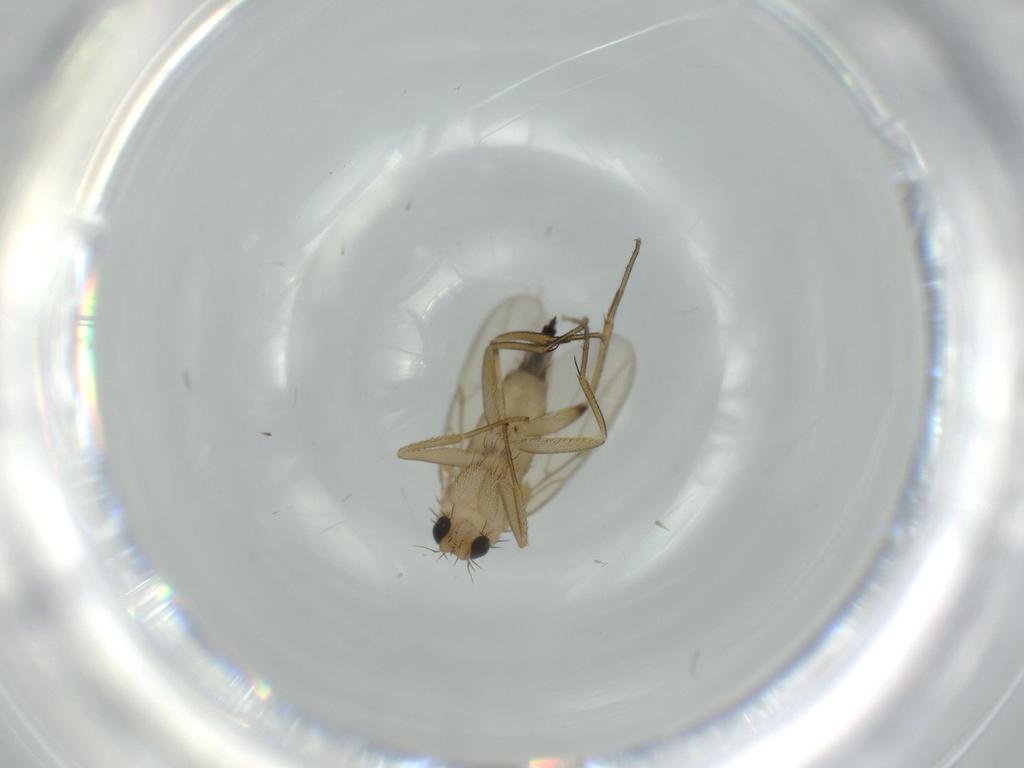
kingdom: Animalia
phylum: Arthropoda
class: Insecta
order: Diptera
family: Phoridae
